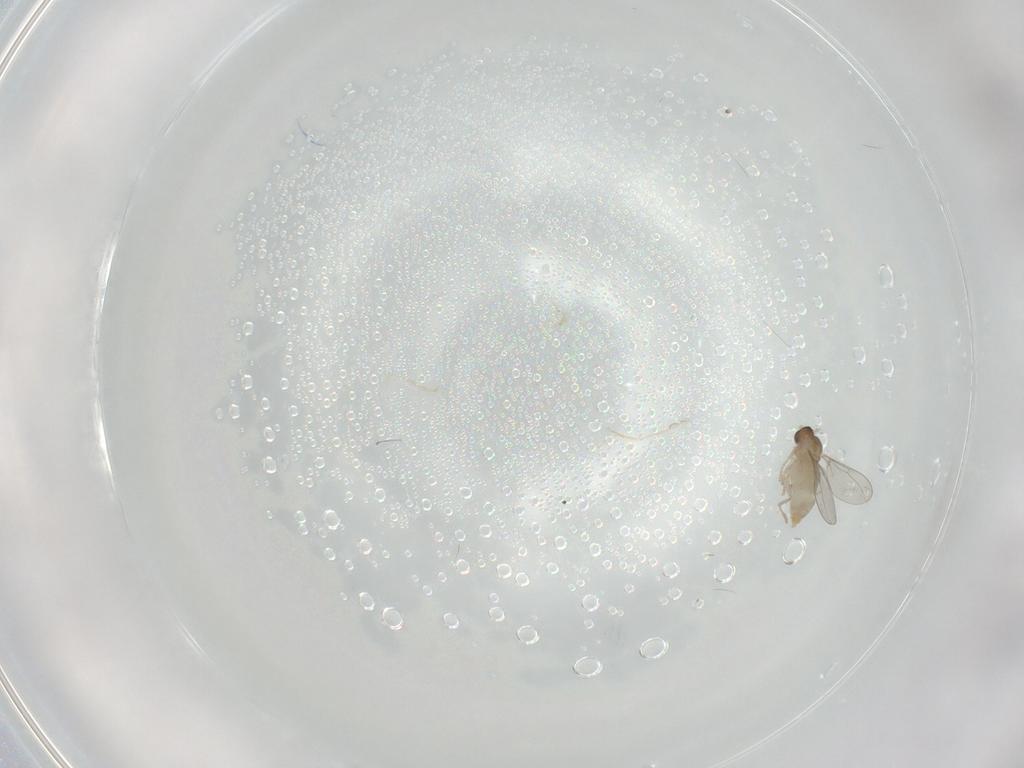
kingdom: Animalia
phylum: Arthropoda
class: Insecta
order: Diptera
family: Cecidomyiidae
